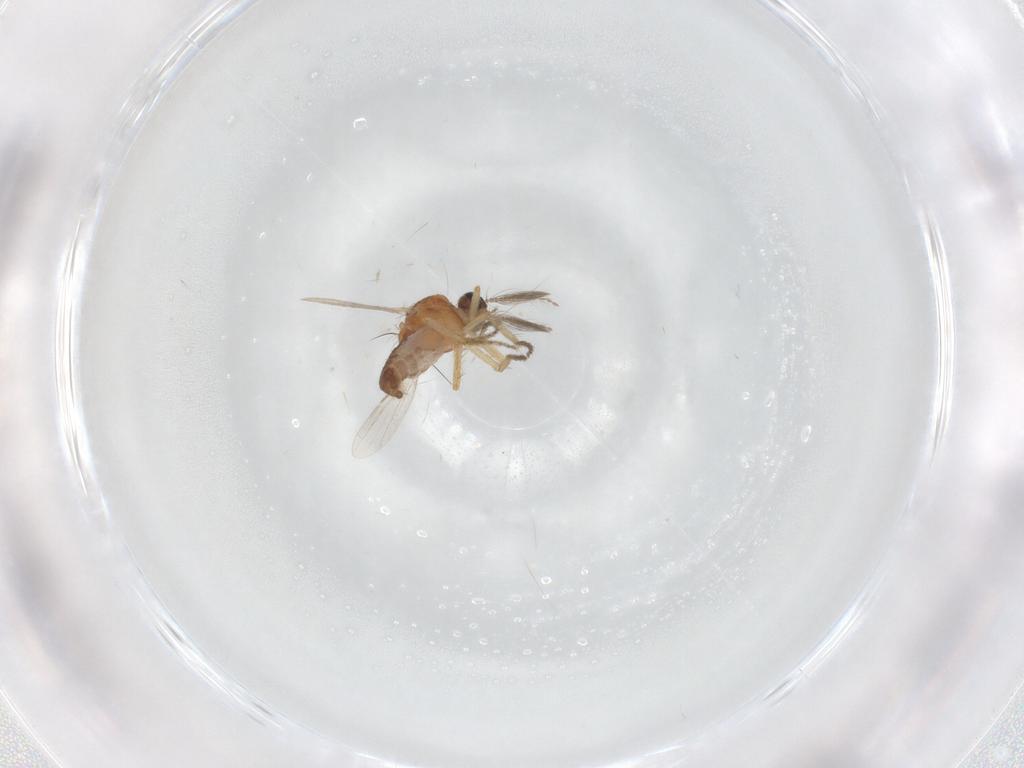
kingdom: Animalia
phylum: Arthropoda
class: Insecta
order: Diptera
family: Ceratopogonidae
